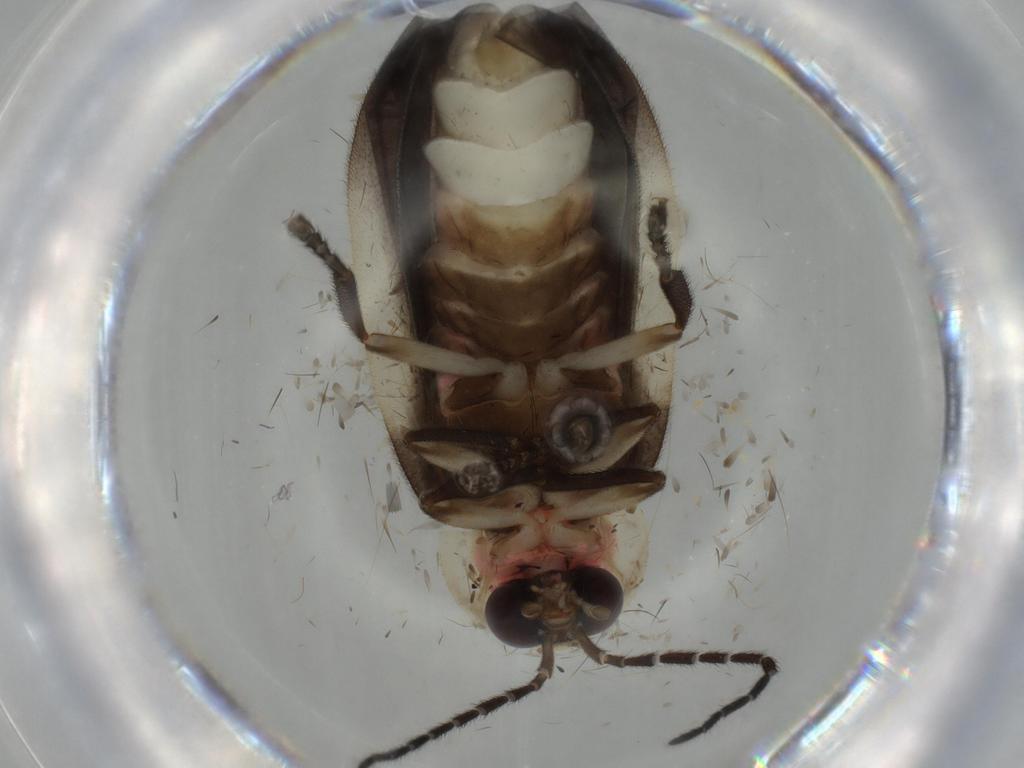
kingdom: Animalia
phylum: Arthropoda
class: Insecta
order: Coleoptera
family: Lampyridae
